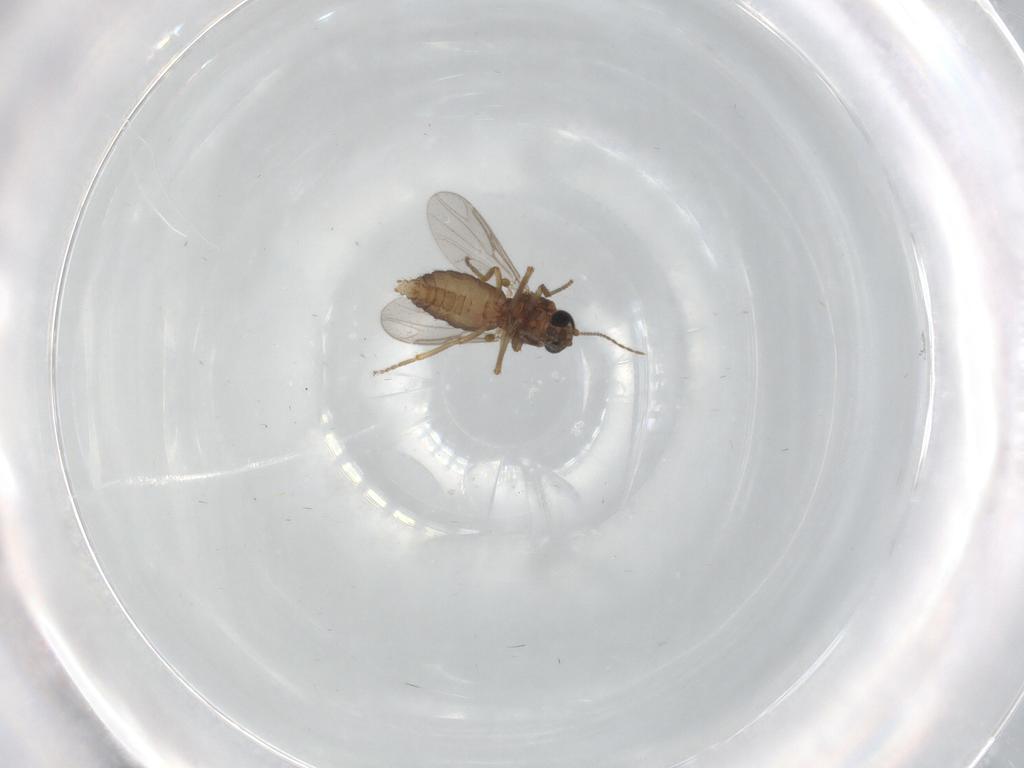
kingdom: Animalia
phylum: Arthropoda
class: Insecta
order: Diptera
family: Ceratopogonidae
